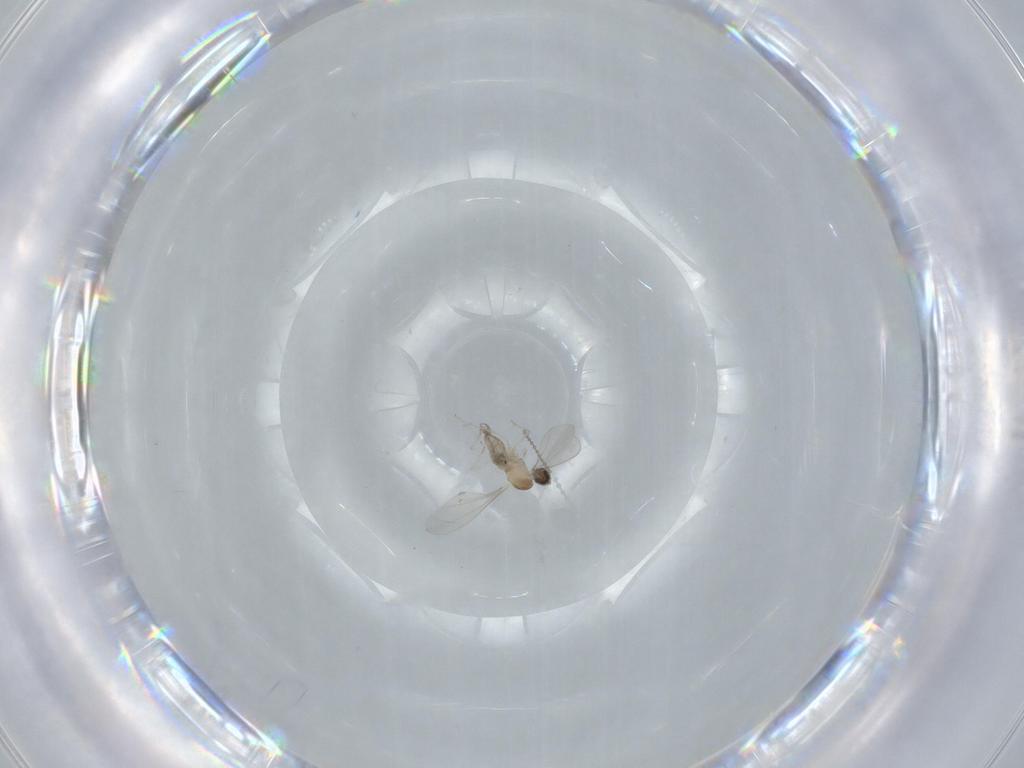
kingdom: Animalia
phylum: Arthropoda
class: Insecta
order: Diptera
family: Cecidomyiidae
